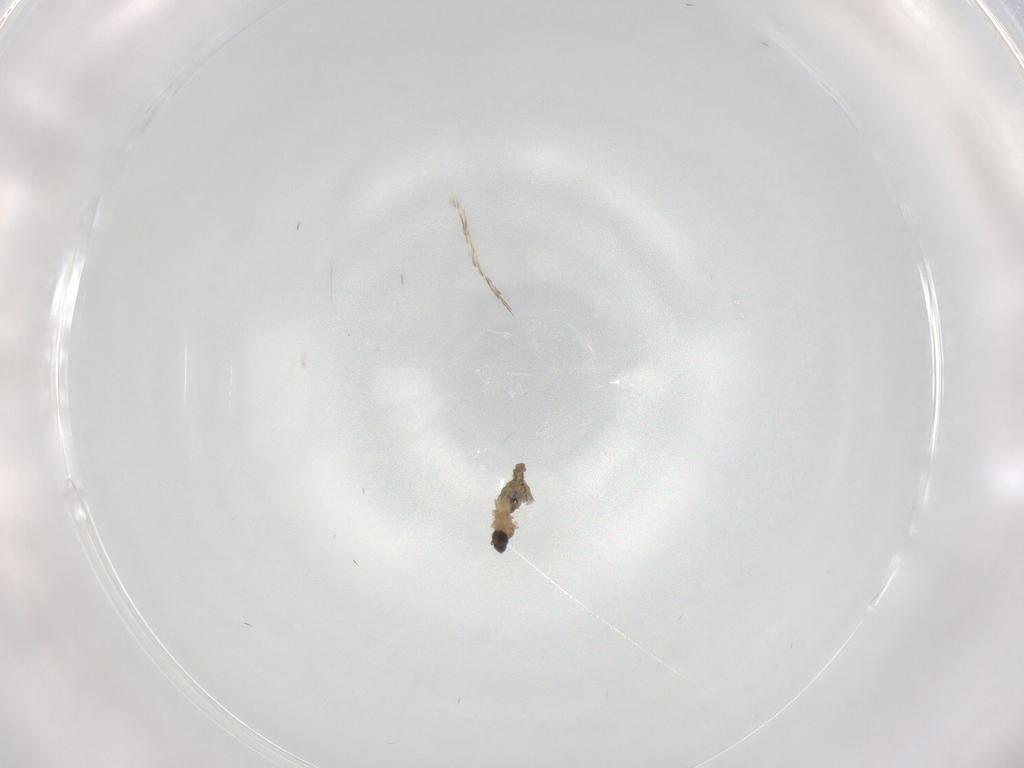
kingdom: Animalia
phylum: Arthropoda
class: Insecta
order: Diptera
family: Cecidomyiidae
